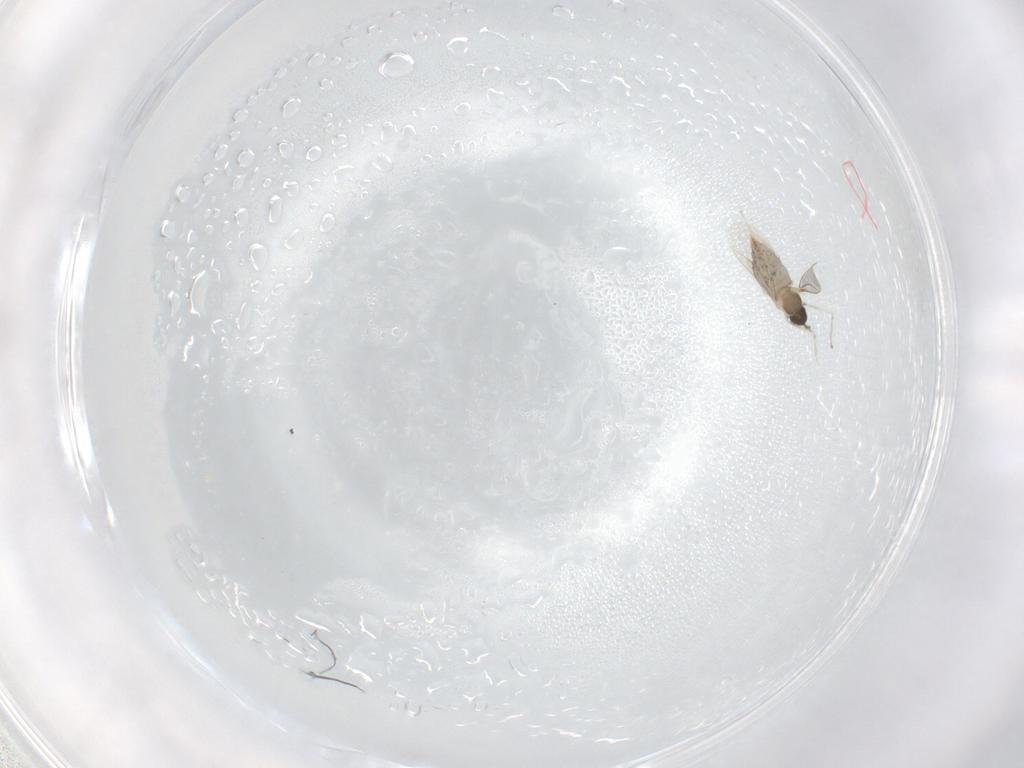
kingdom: Animalia
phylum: Arthropoda
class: Insecta
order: Diptera
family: Cecidomyiidae
